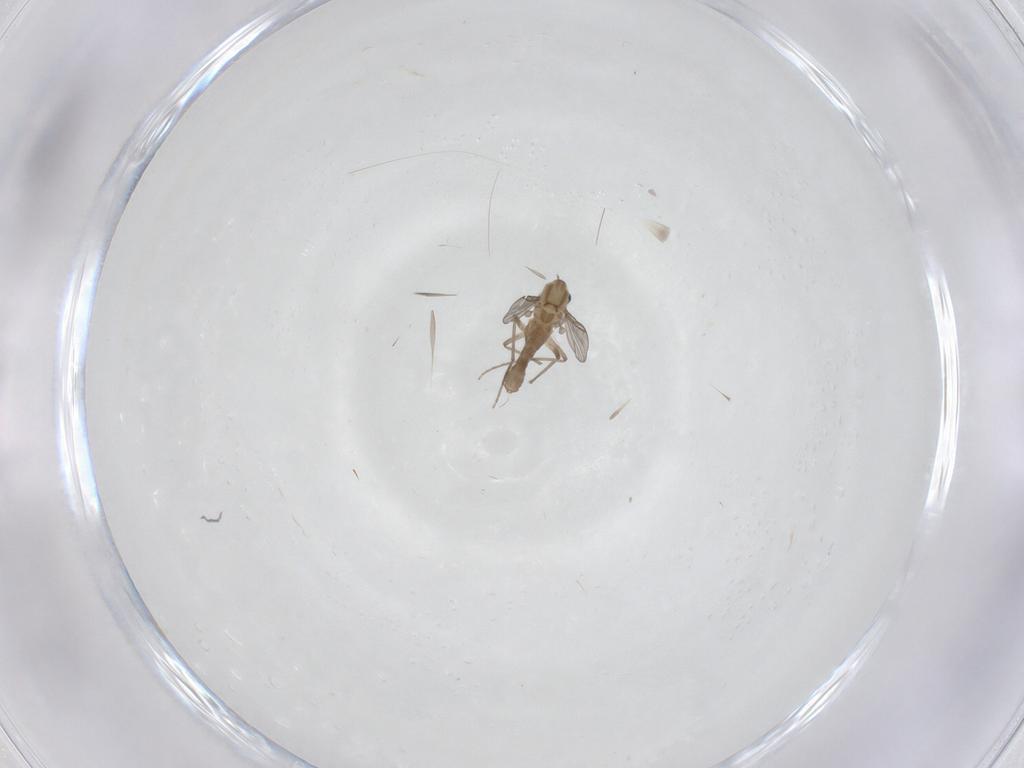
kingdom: Animalia
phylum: Arthropoda
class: Insecta
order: Diptera
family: Chironomidae
